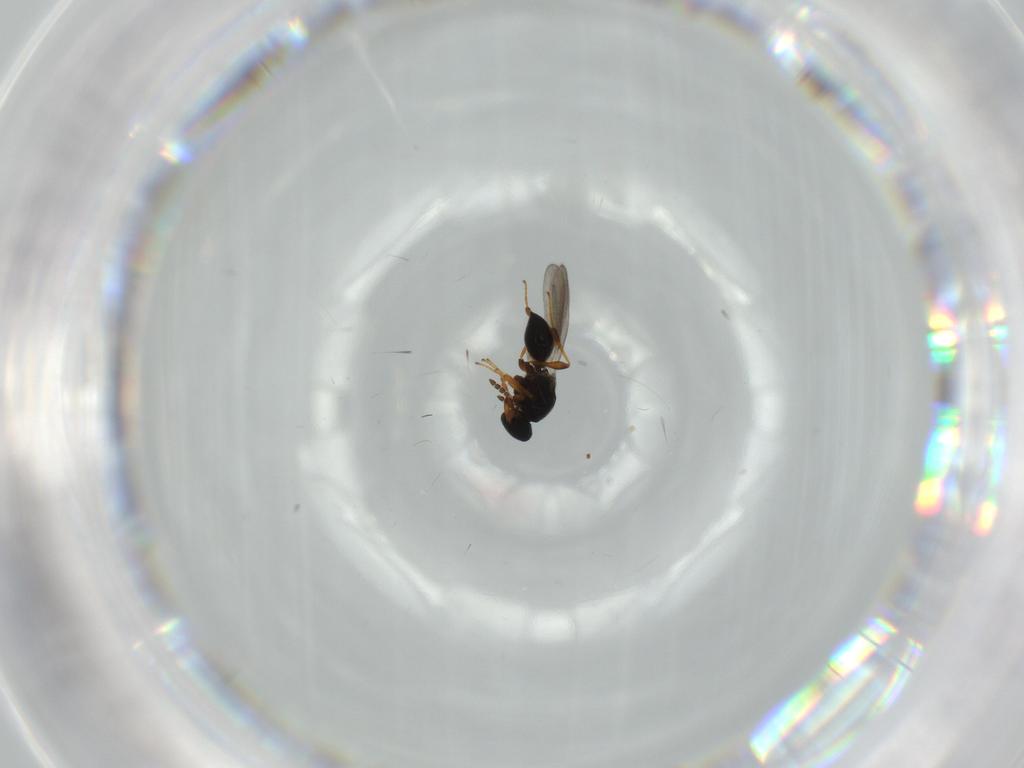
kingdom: Animalia
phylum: Arthropoda
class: Insecta
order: Hymenoptera
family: Platygastridae
